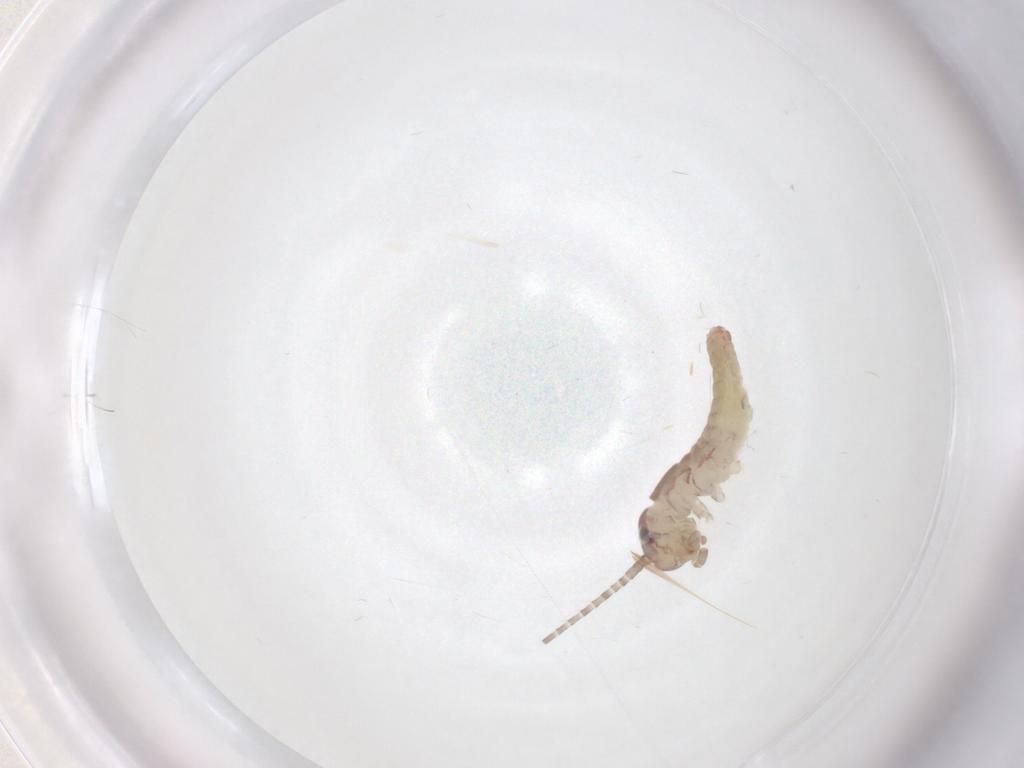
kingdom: Animalia
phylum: Arthropoda
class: Insecta
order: Orthoptera
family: Mogoplistidae
